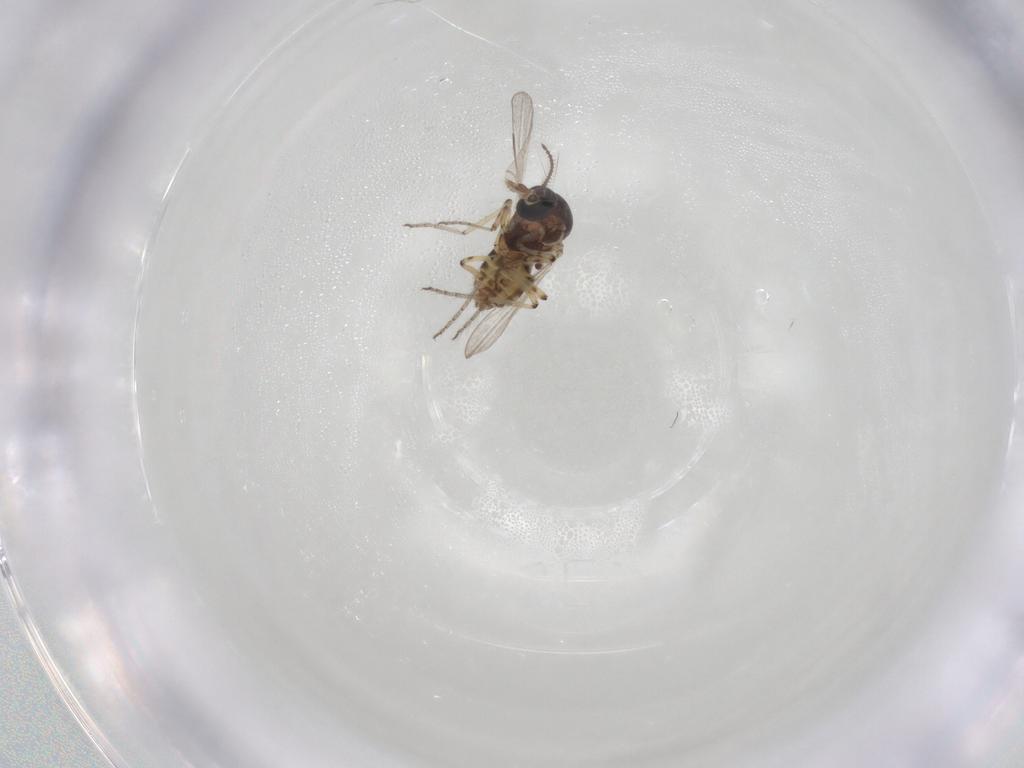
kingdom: Animalia
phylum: Arthropoda
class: Insecta
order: Diptera
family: Ceratopogonidae
